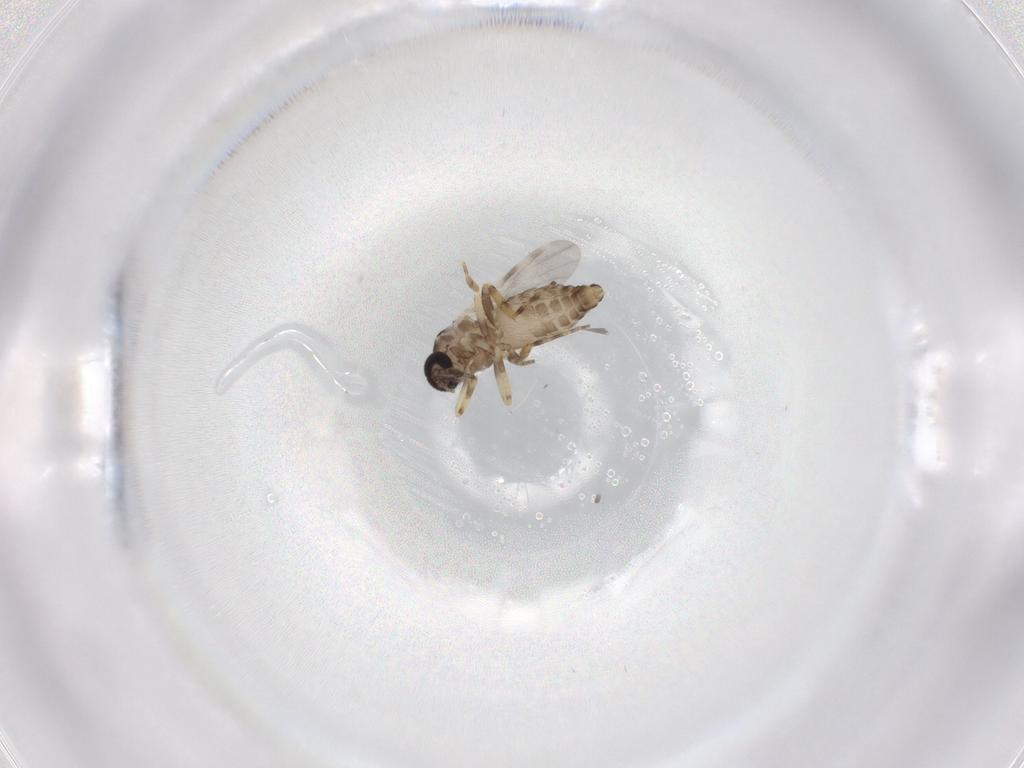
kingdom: Animalia
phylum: Arthropoda
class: Insecta
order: Diptera
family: Ceratopogonidae
